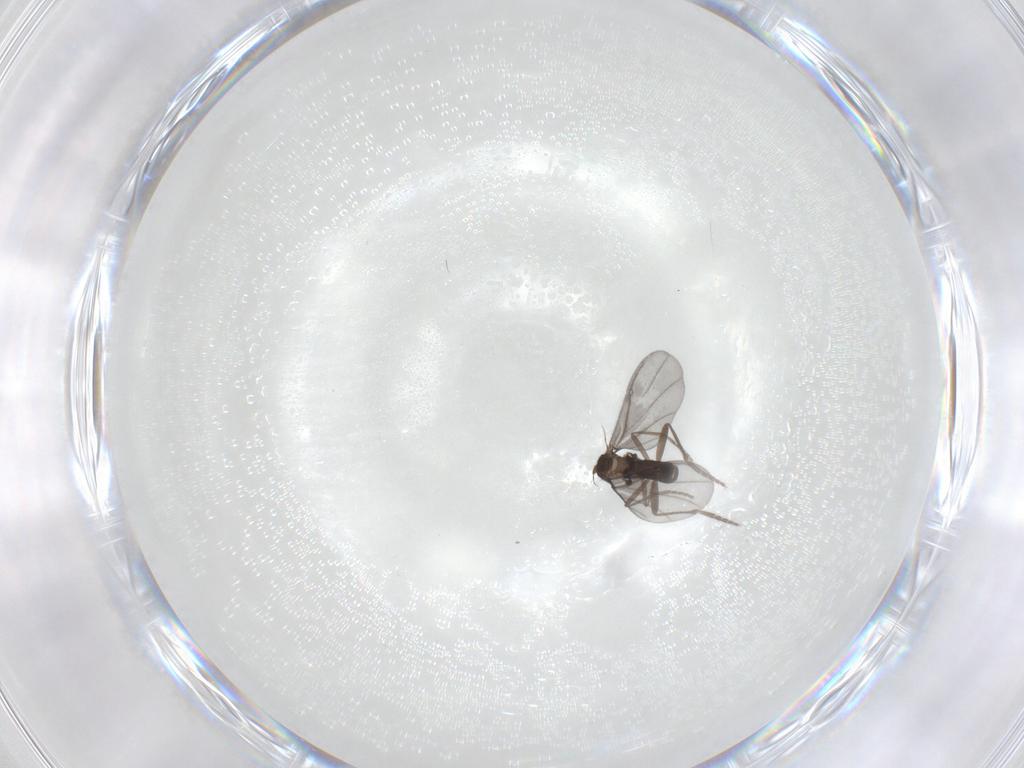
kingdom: Animalia
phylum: Arthropoda
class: Insecta
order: Diptera
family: Phoridae
